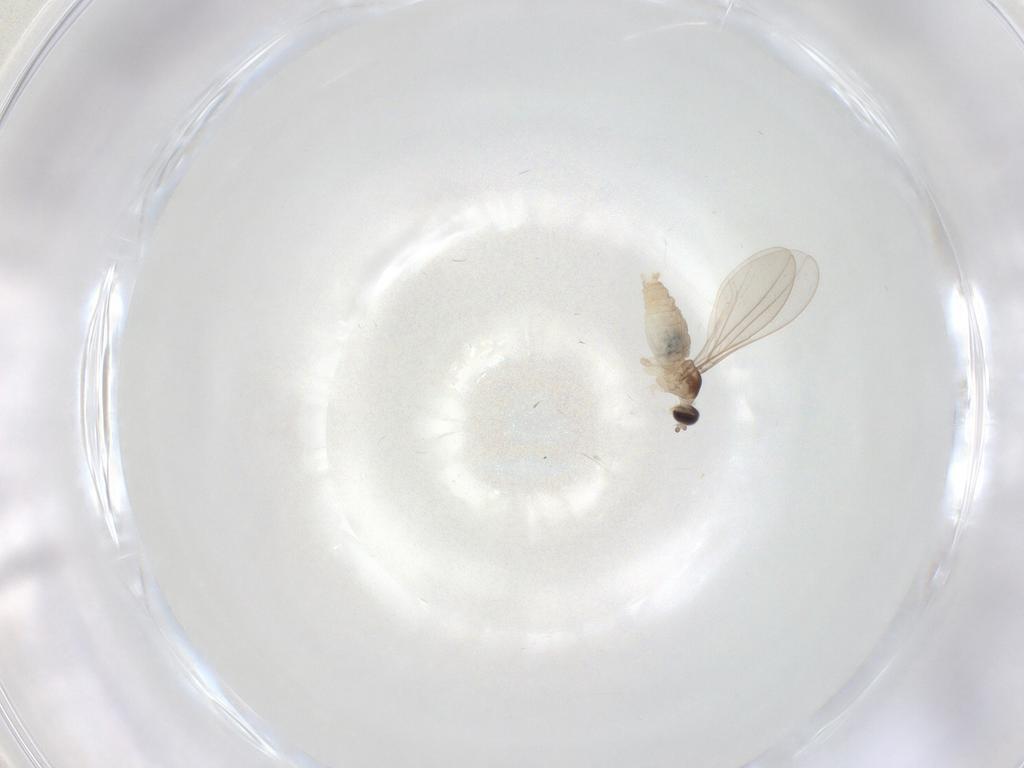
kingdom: Animalia
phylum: Arthropoda
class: Insecta
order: Diptera
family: Cecidomyiidae
